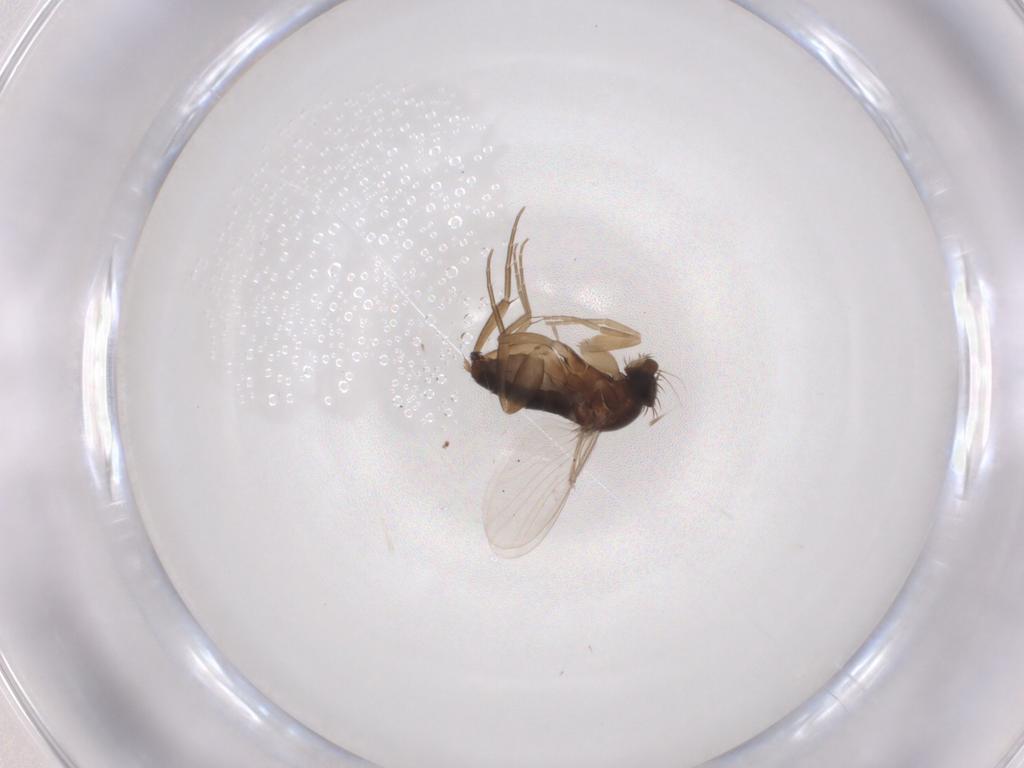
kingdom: Animalia
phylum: Arthropoda
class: Insecta
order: Diptera
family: Phoridae
